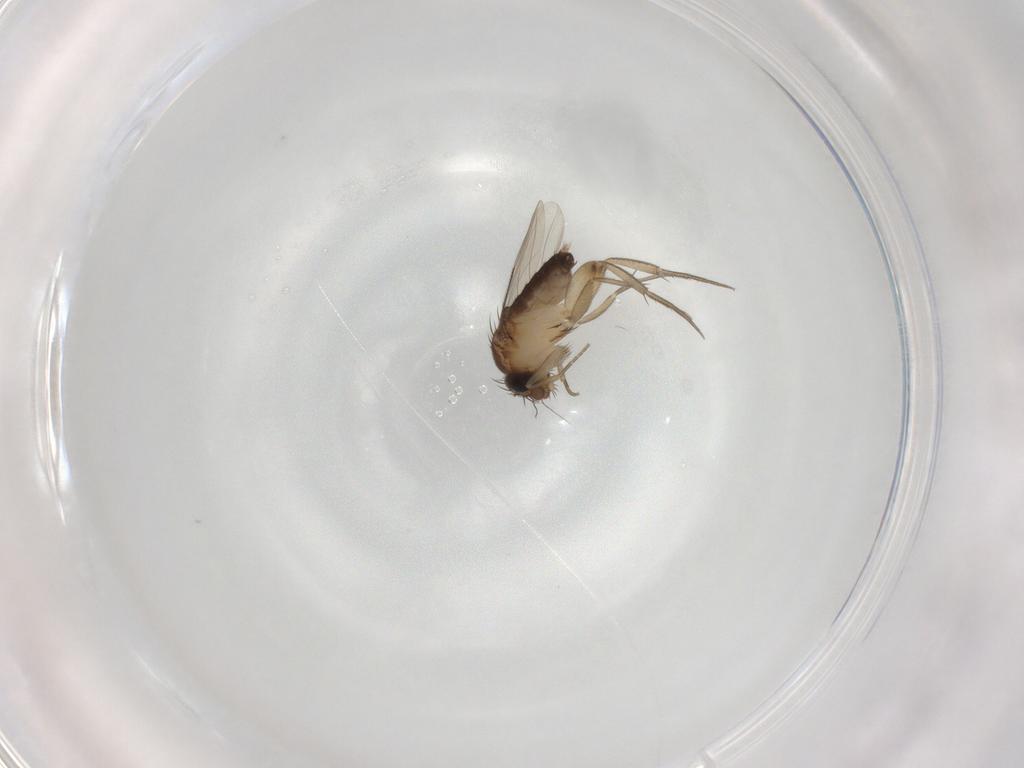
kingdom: Animalia
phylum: Arthropoda
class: Insecta
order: Diptera
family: Phoridae
